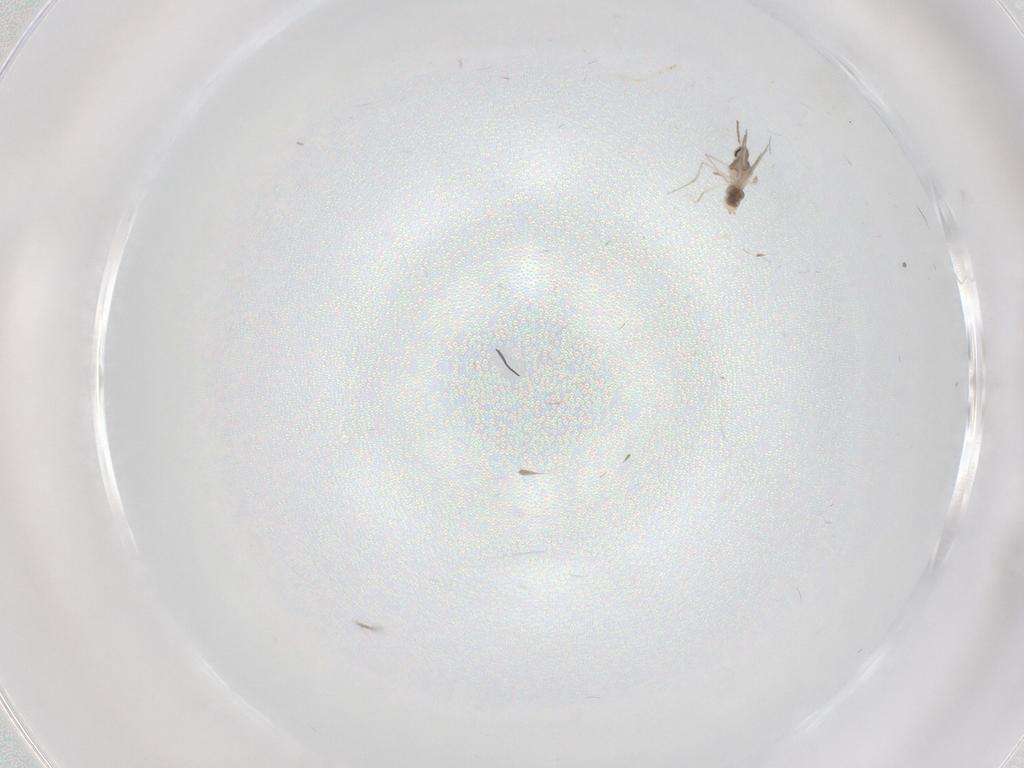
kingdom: Animalia
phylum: Arthropoda
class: Insecta
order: Diptera
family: Cecidomyiidae
